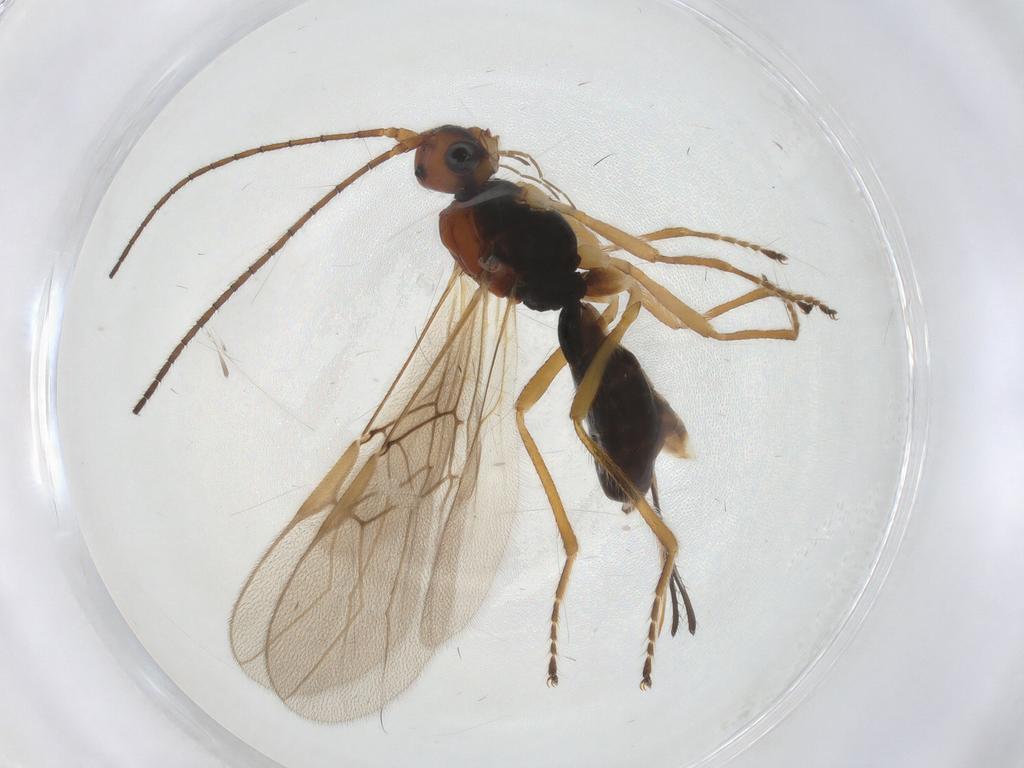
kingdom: Animalia
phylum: Arthropoda
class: Insecta
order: Hymenoptera
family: Braconidae
